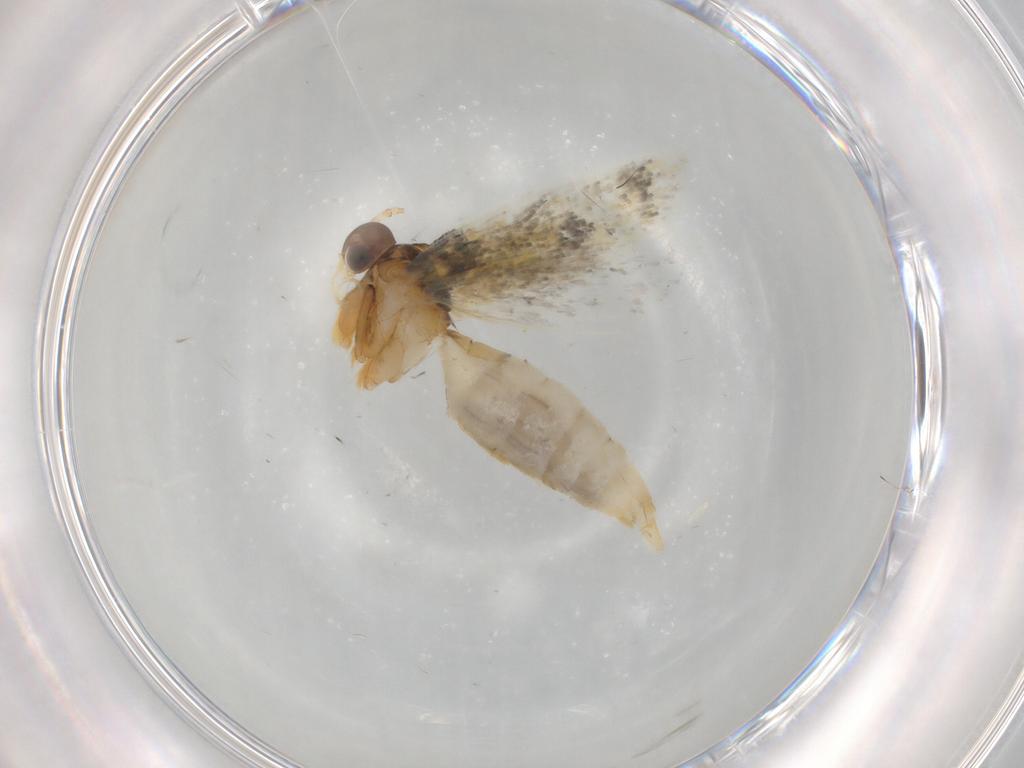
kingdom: Animalia
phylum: Arthropoda
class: Insecta
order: Lepidoptera
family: Autostichidae
